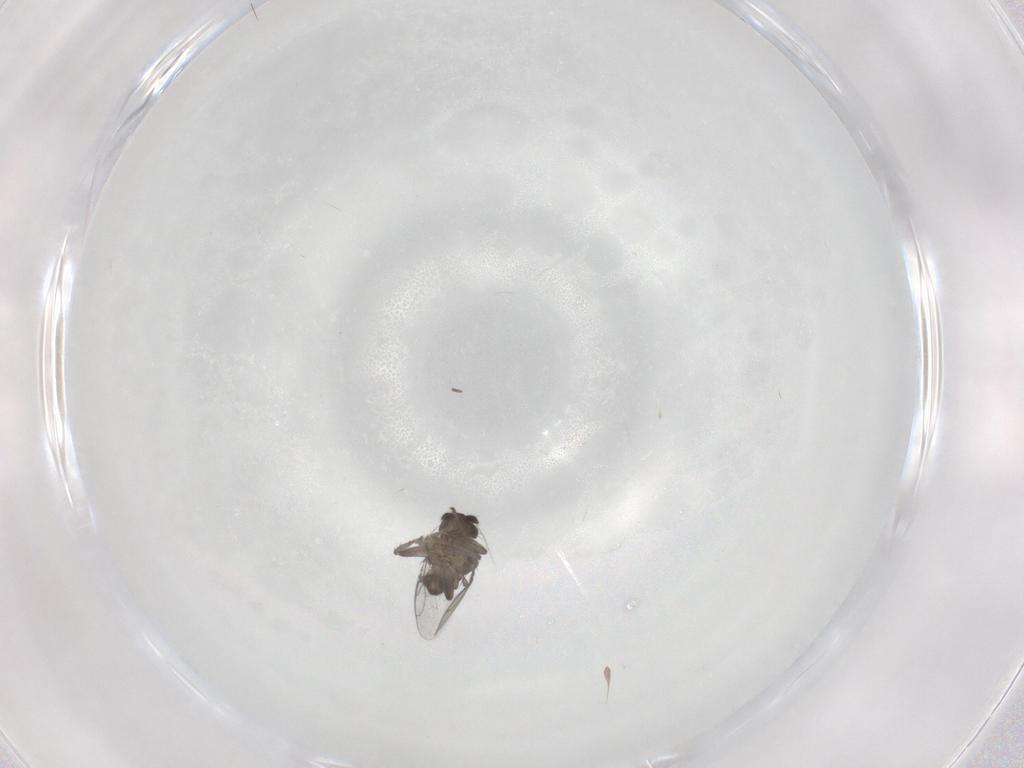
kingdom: Animalia
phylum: Arthropoda
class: Insecta
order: Diptera
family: Sphaeroceridae
